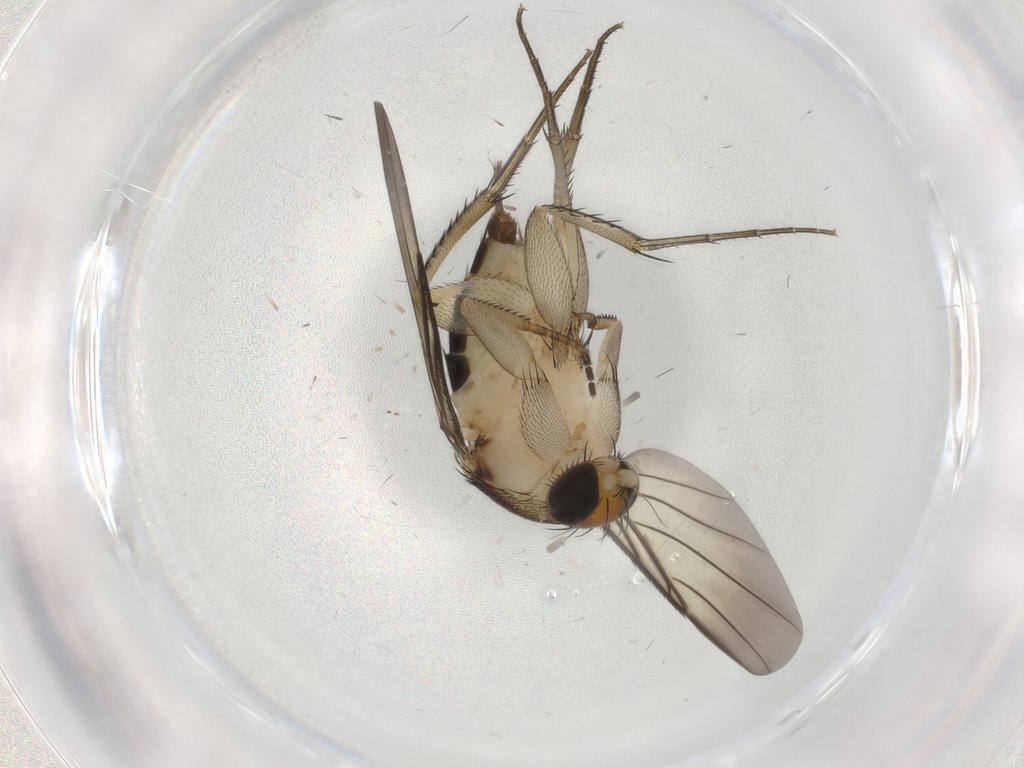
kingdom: Animalia
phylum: Arthropoda
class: Insecta
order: Diptera
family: Phoridae
